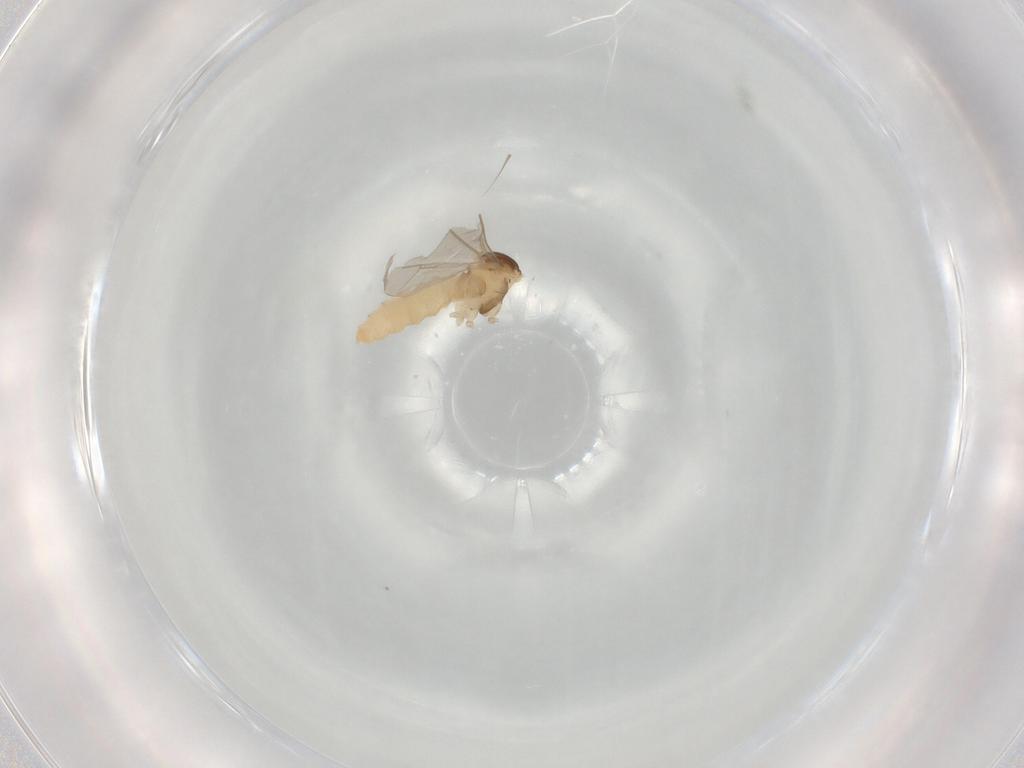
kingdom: Animalia
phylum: Arthropoda
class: Insecta
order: Diptera
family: Cecidomyiidae
